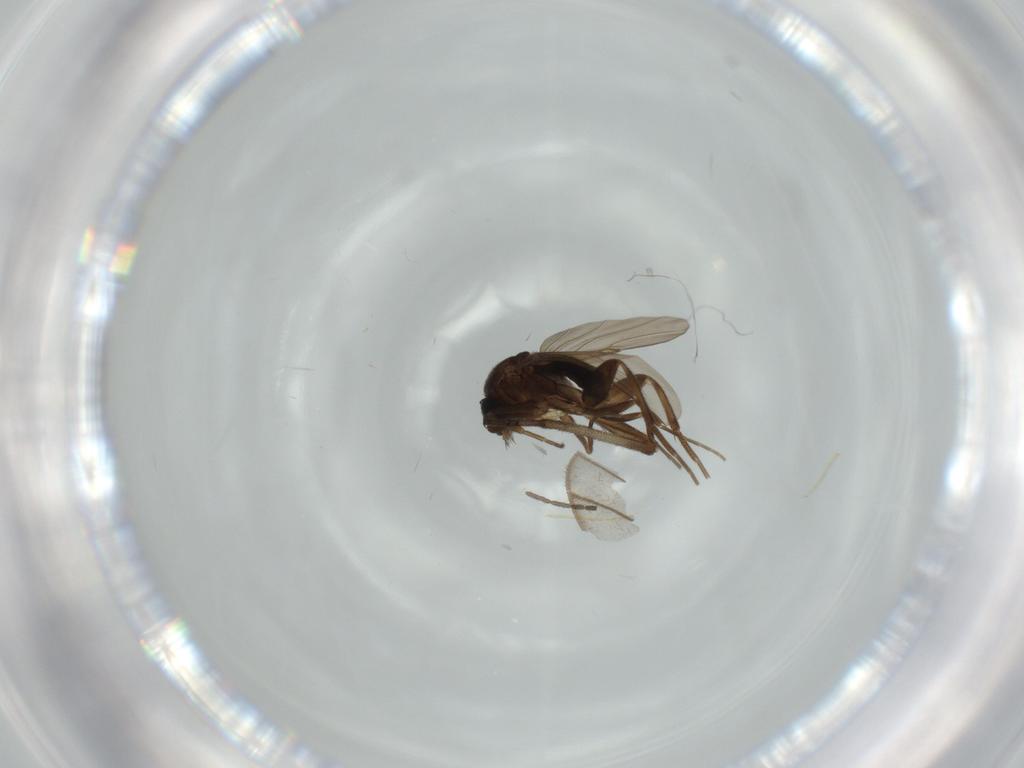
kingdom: Animalia
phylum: Arthropoda
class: Insecta
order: Diptera
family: Phoridae
